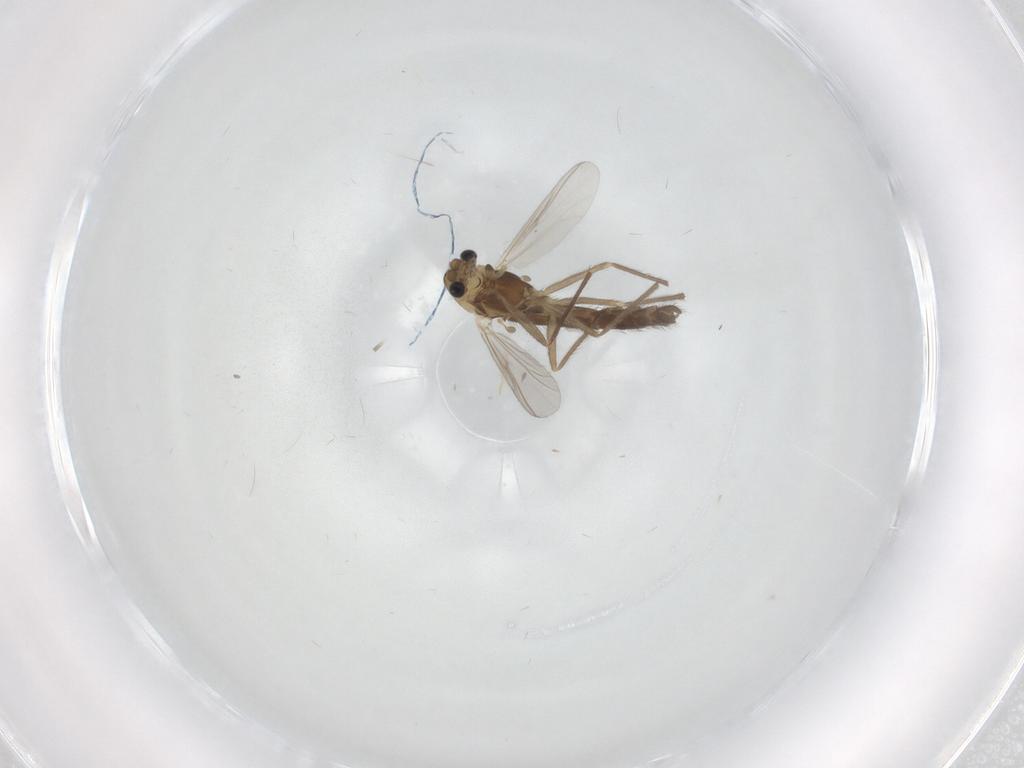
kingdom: Animalia
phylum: Arthropoda
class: Insecta
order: Diptera
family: Chironomidae
